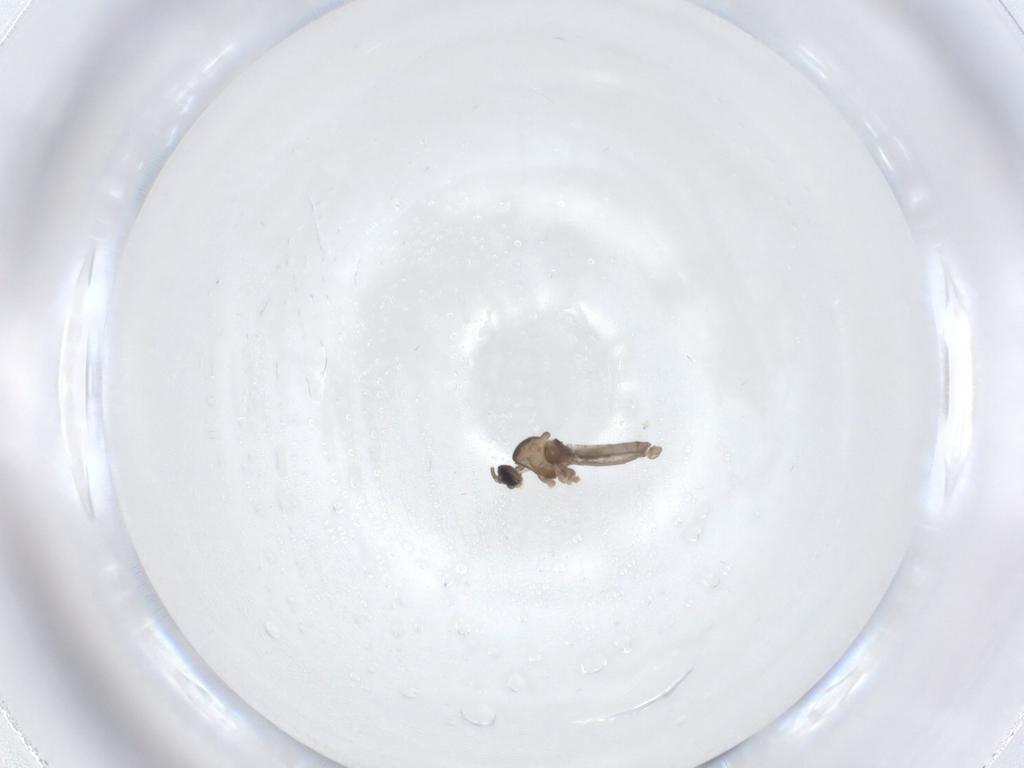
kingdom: Animalia
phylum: Arthropoda
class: Insecta
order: Diptera
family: Cecidomyiidae
